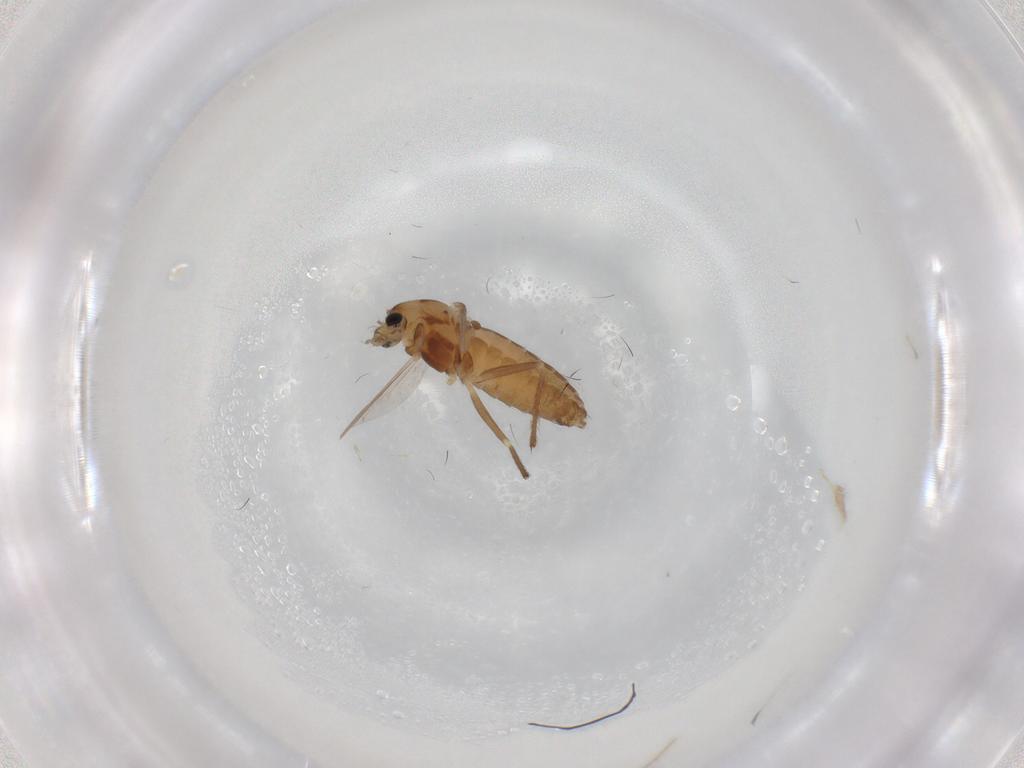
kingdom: Animalia
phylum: Arthropoda
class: Insecta
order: Diptera
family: Chironomidae
